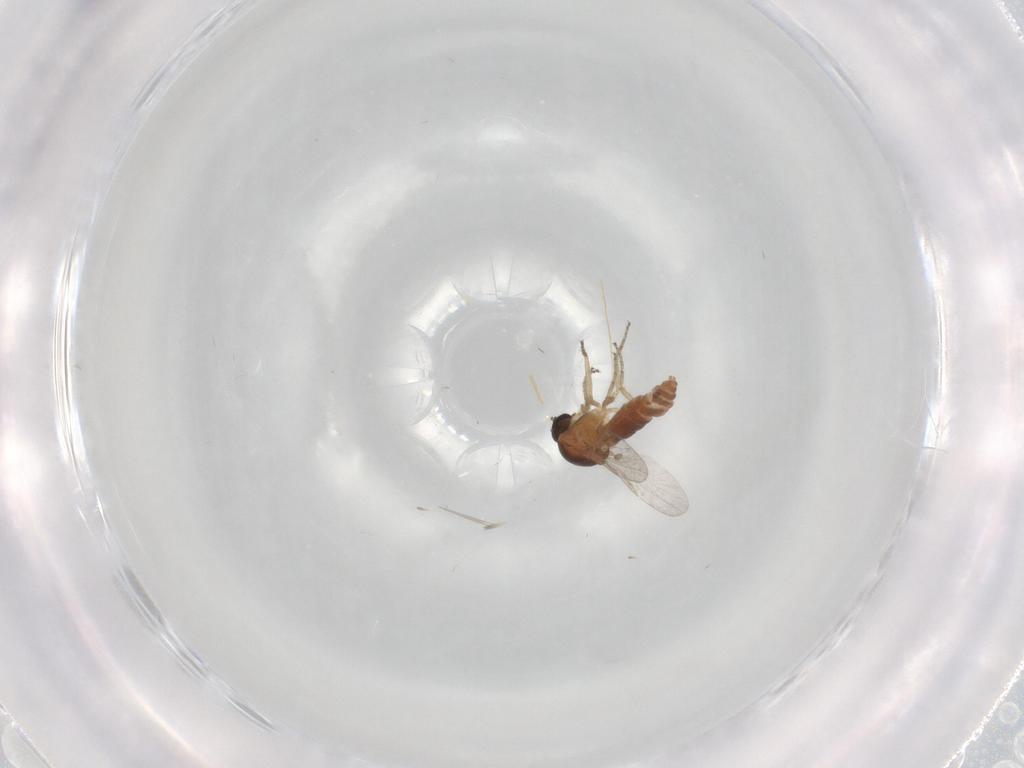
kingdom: Animalia
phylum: Arthropoda
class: Insecta
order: Diptera
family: Ceratopogonidae
